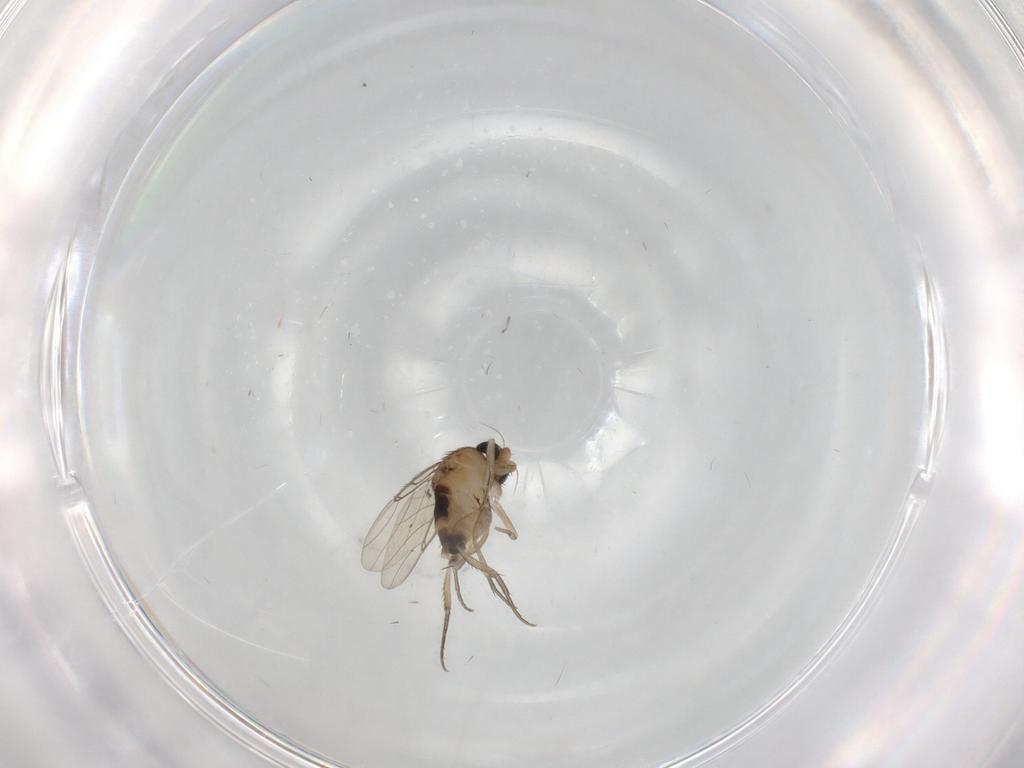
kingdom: Animalia
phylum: Arthropoda
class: Insecta
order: Diptera
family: Phoridae
